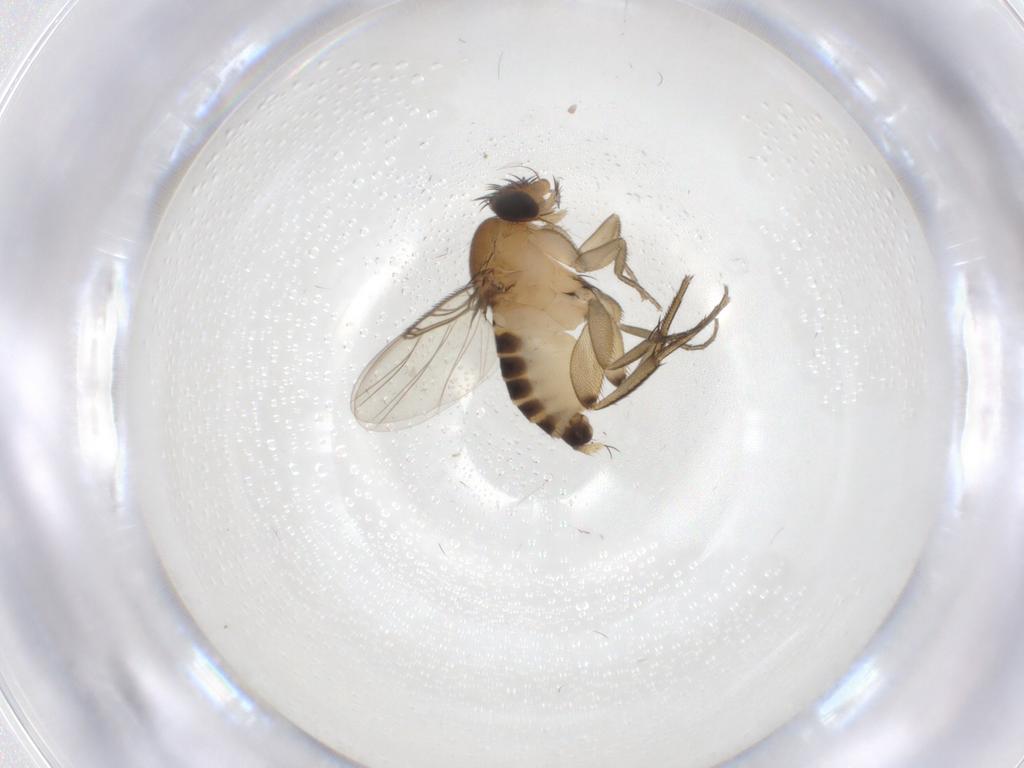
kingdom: Animalia
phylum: Arthropoda
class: Insecta
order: Diptera
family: Phoridae
